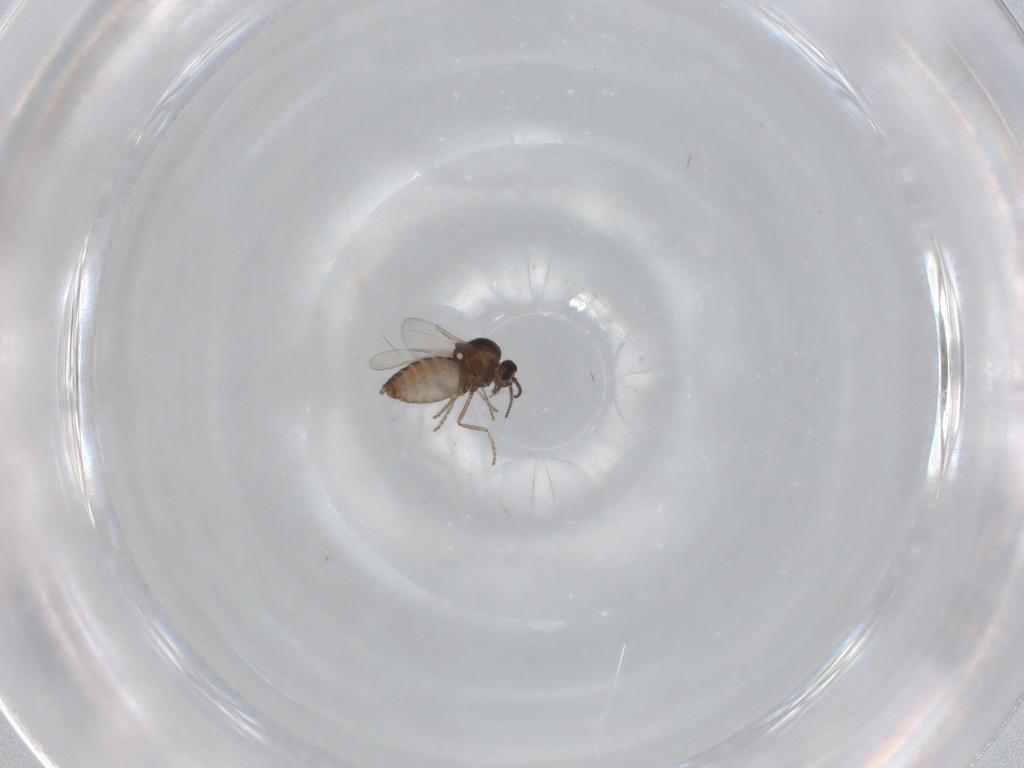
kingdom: Animalia
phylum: Arthropoda
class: Insecta
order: Diptera
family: Ceratopogonidae
